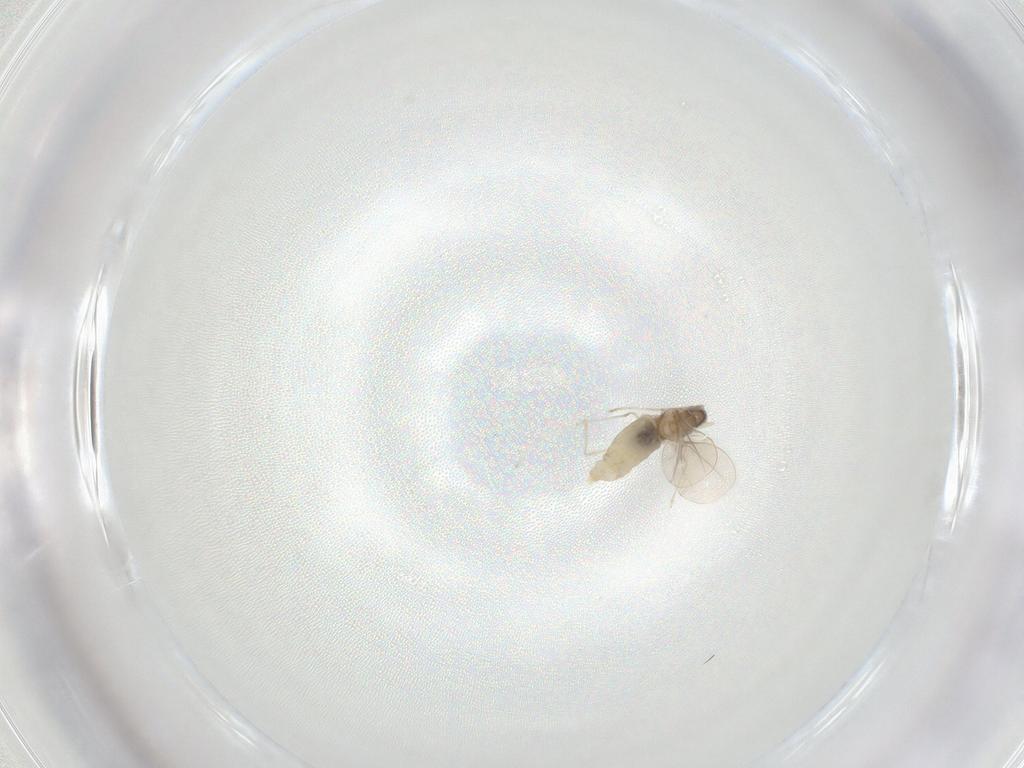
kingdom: Animalia
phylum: Arthropoda
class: Insecta
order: Diptera
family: Cecidomyiidae
